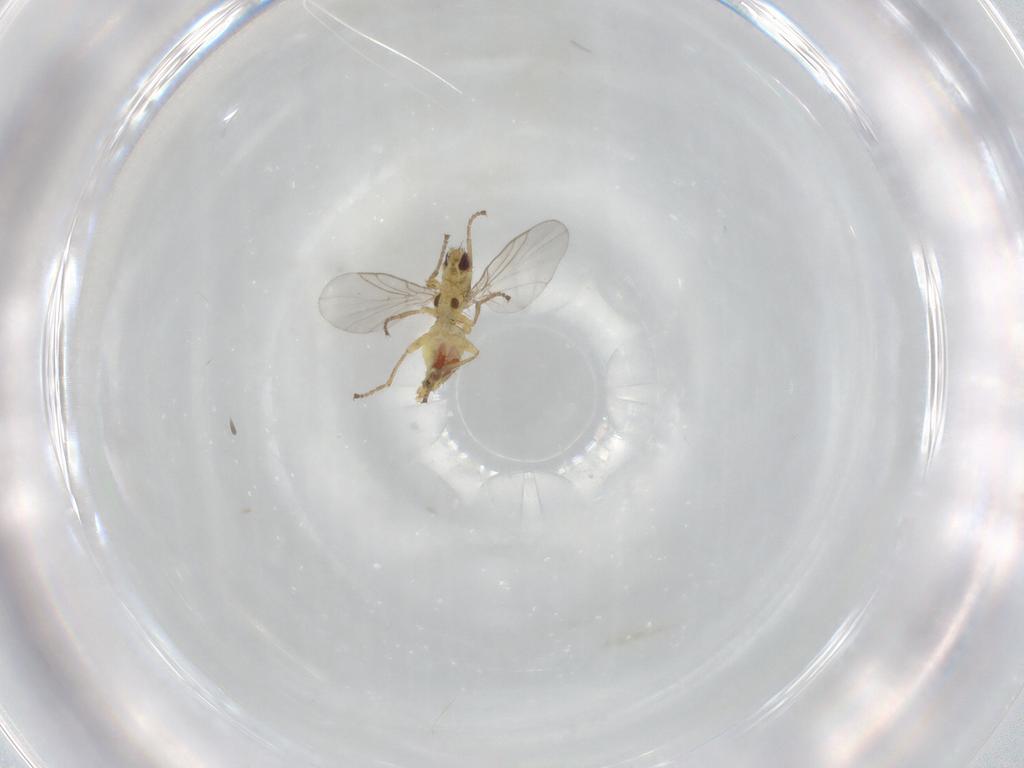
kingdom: Animalia
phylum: Arthropoda
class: Insecta
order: Diptera
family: Agromyzidae
